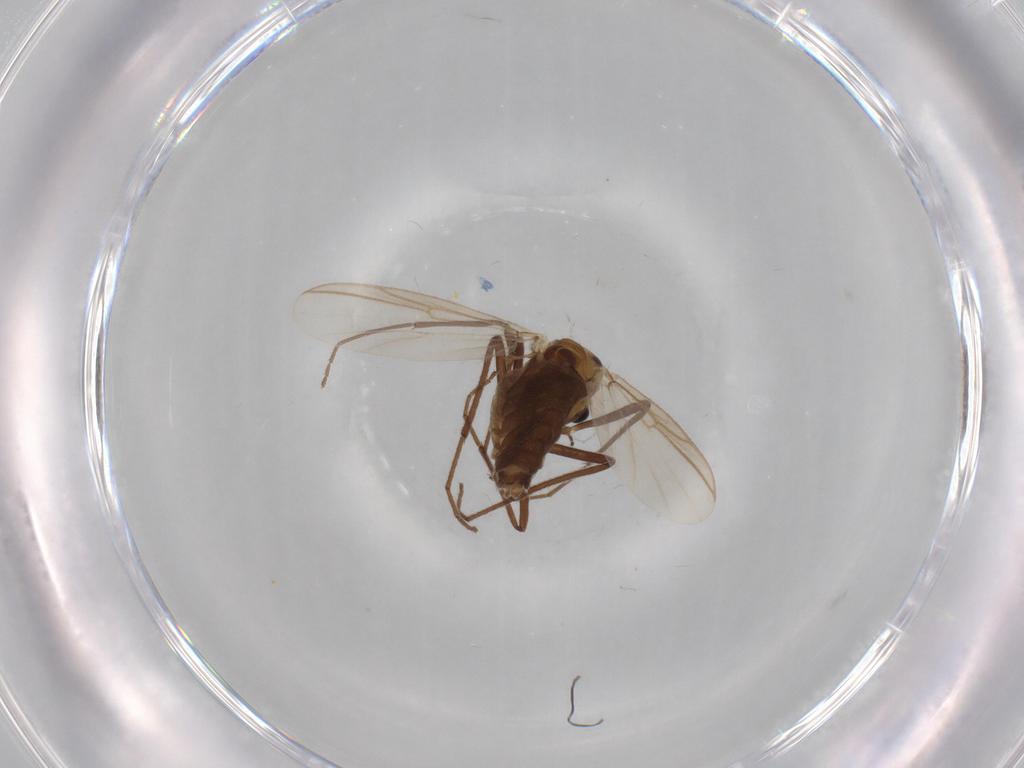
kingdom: Animalia
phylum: Arthropoda
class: Insecta
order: Diptera
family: Chironomidae
